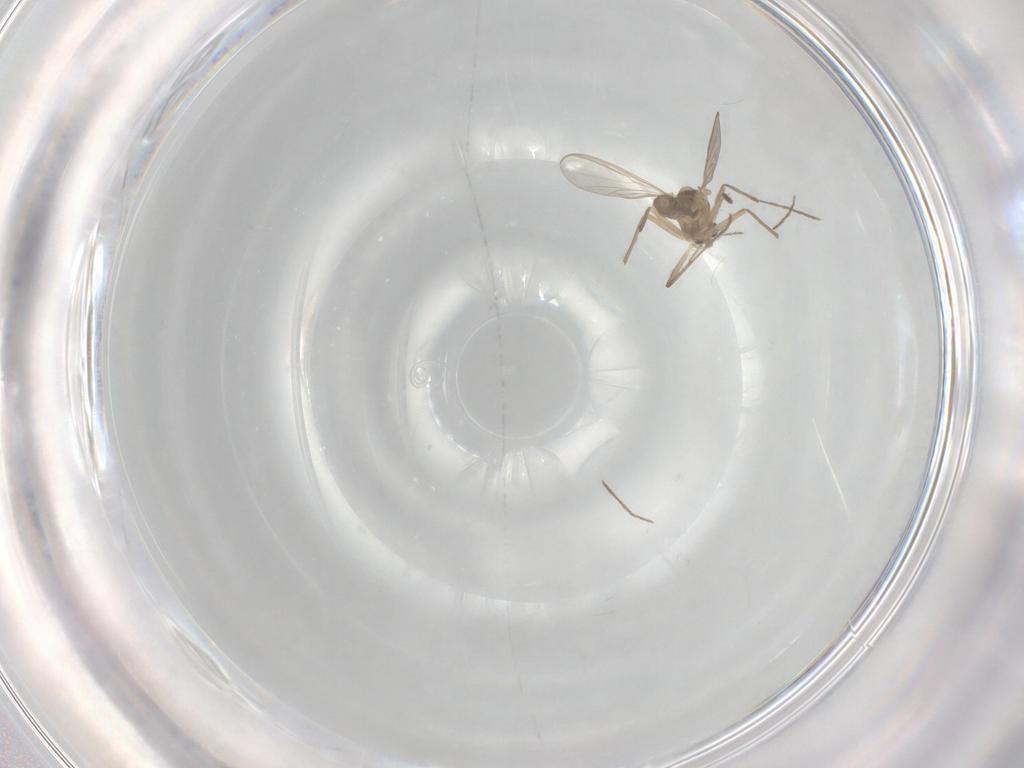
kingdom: Animalia
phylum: Arthropoda
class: Insecta
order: Diptera
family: Chironomidae
